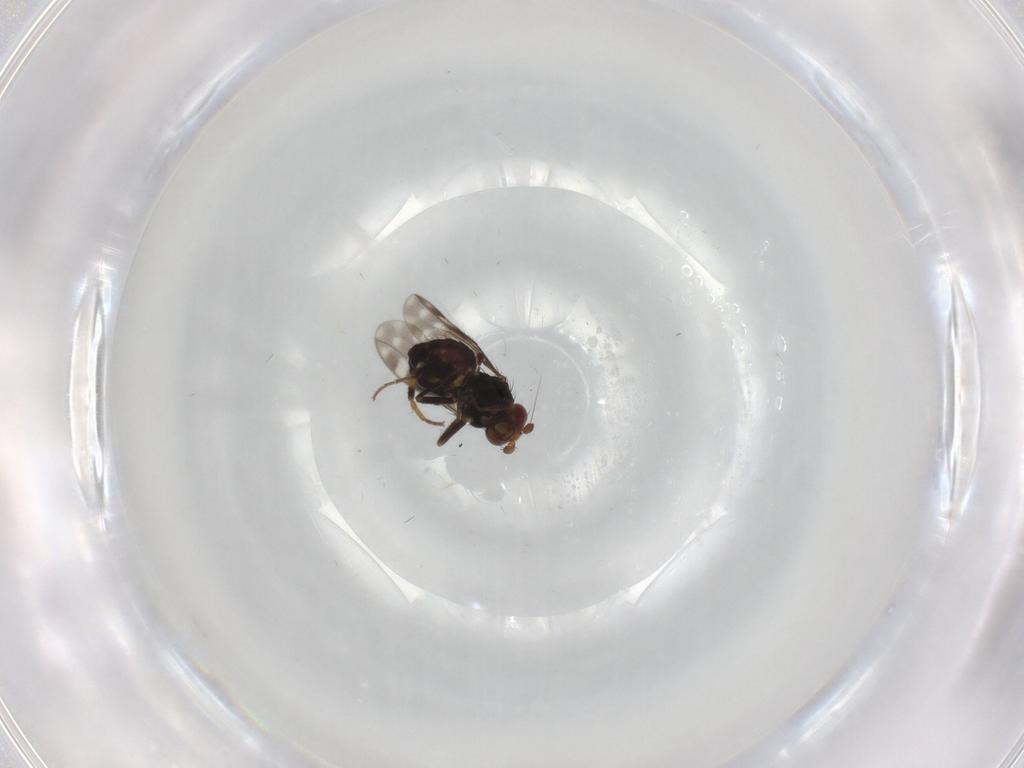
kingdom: Animalia
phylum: Arthropoda
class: Insecta
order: Diptera
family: Sphaeroceridae
